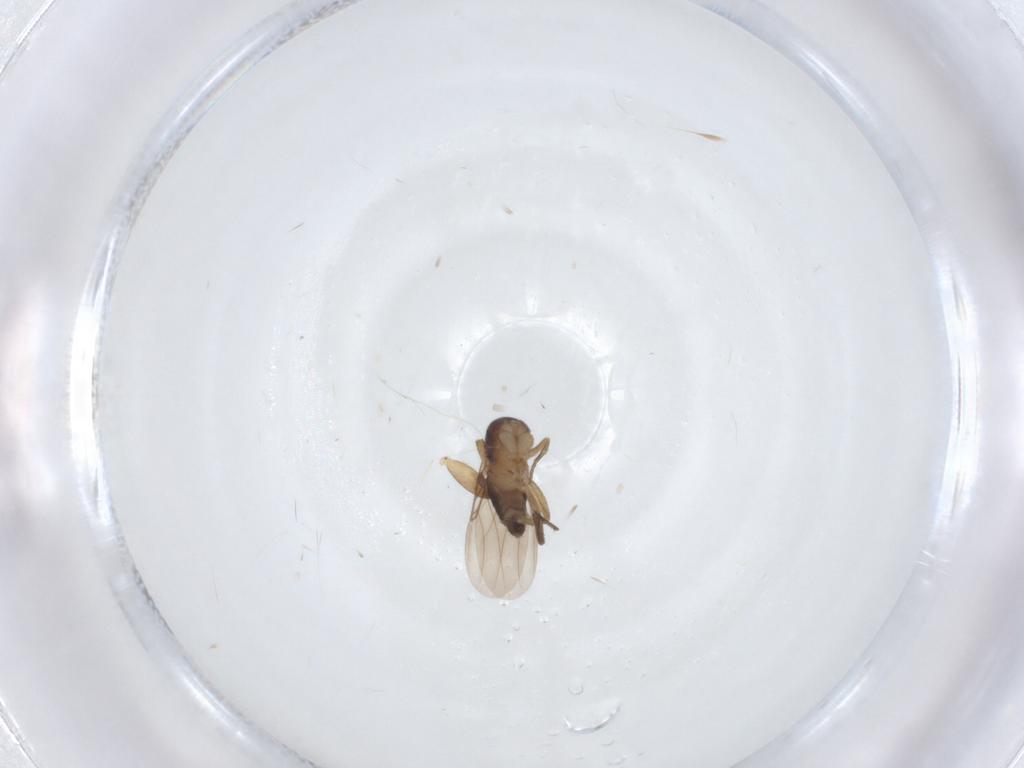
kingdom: Animalia
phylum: Arthropoda
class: Insecta
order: Diptera
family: Phoridae
